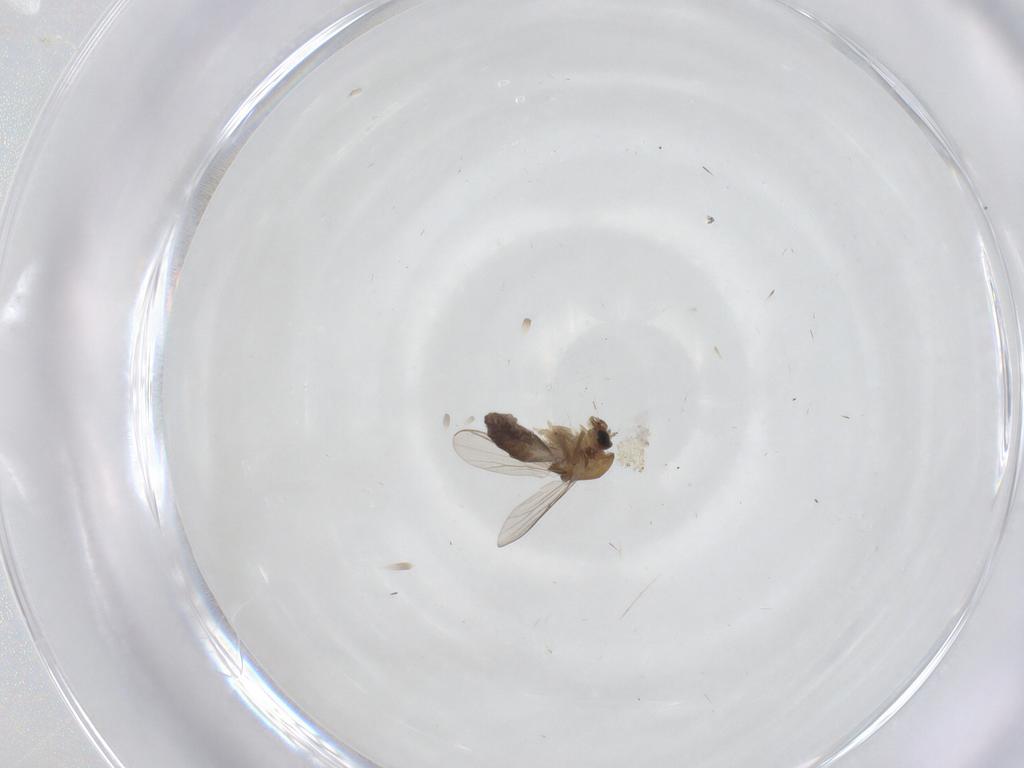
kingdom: Animalia
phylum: Arthropoda
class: Insecta
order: Diptera
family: Chironomidae
